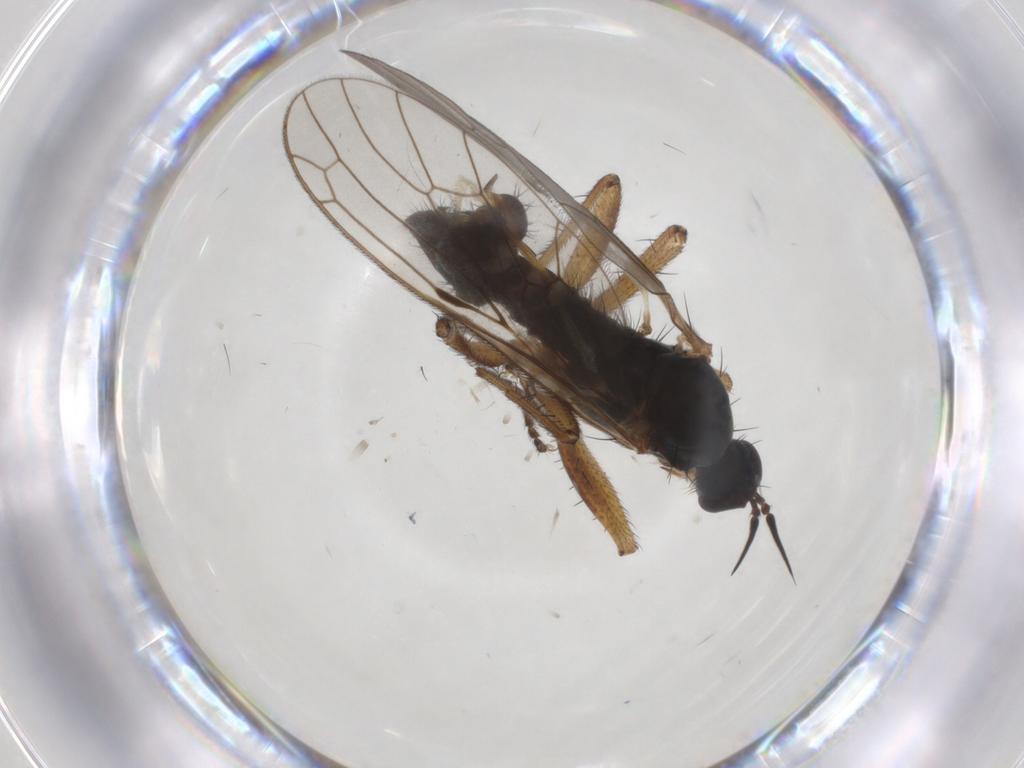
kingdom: Animalia
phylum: Arthropoda
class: Insecta
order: Diptera
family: Empididae
